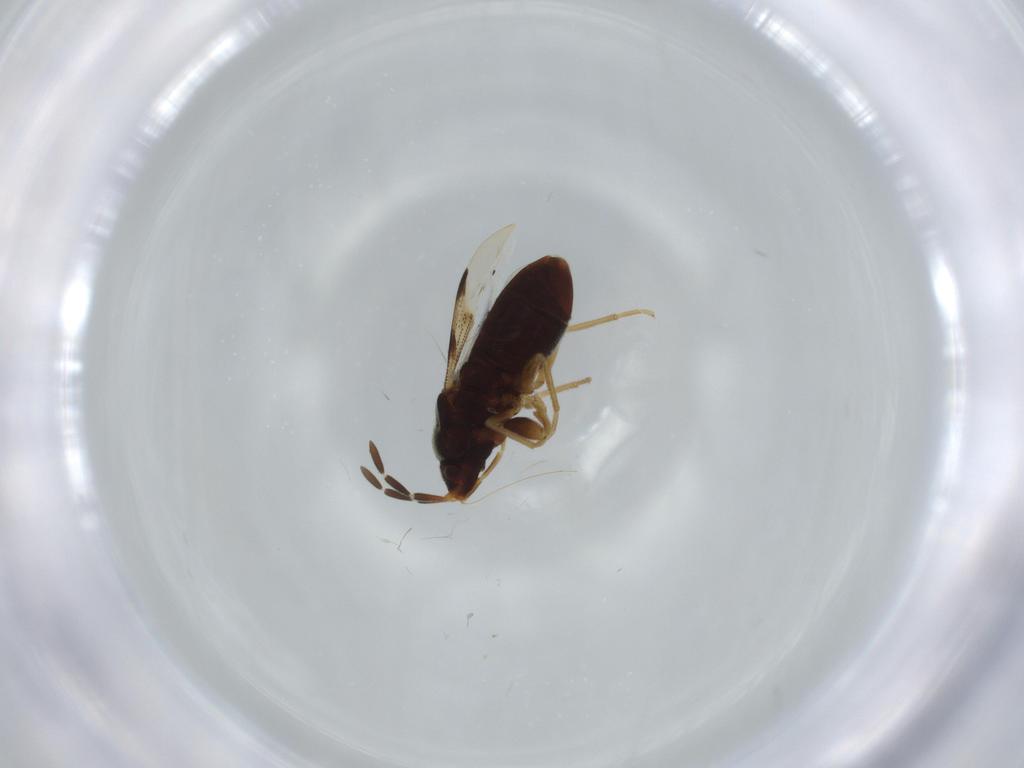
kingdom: Animalia
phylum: Arthropoda
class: Insecta
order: Hemiptera
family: Rhyparochromidae
